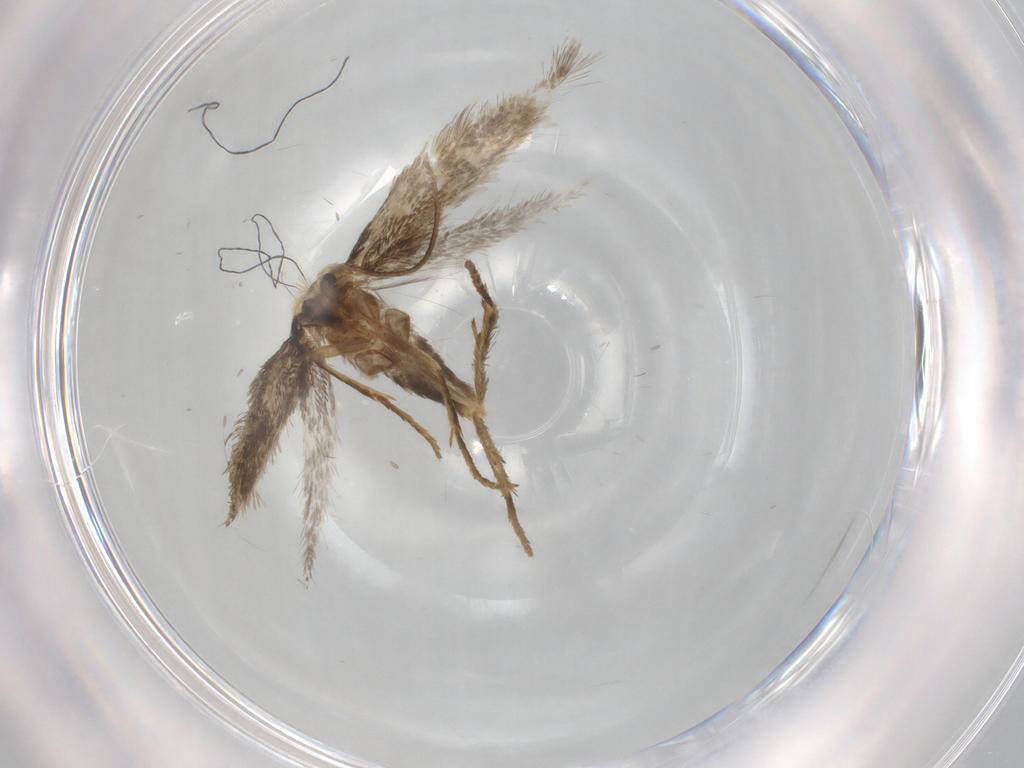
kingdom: Animalia
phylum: Arthropoda
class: Insecta
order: Lepidoptera
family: Nepticulidae
